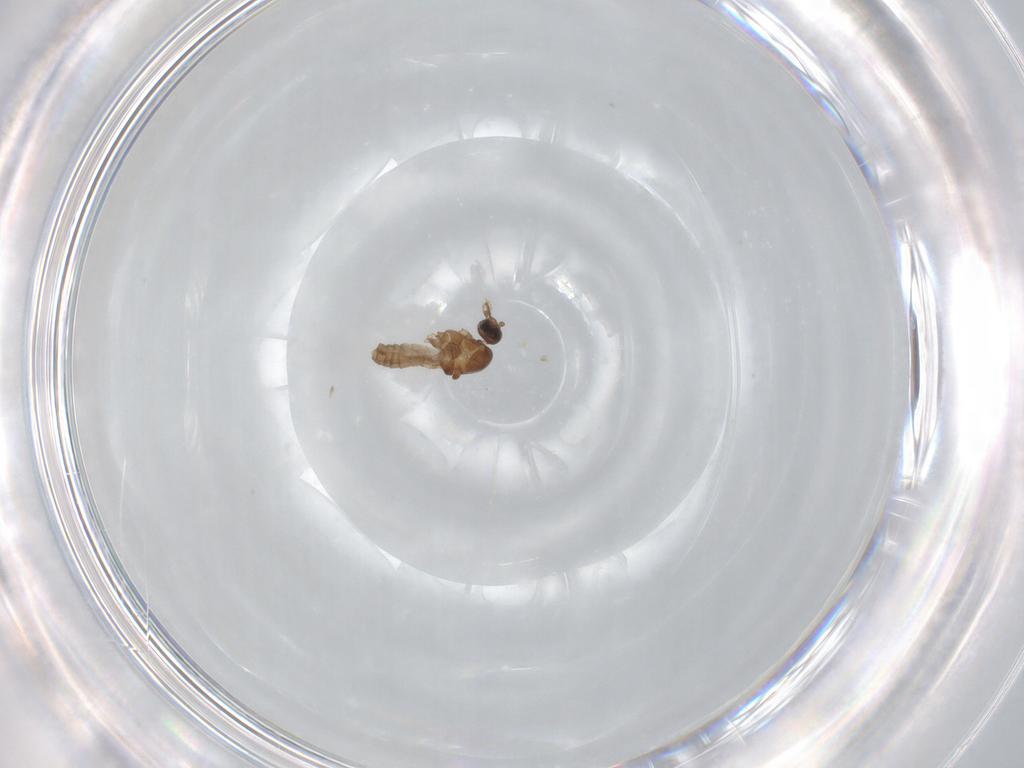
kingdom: Animalia
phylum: Arthropoda
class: Insecta
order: Diptera
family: Cecidomyiidae
